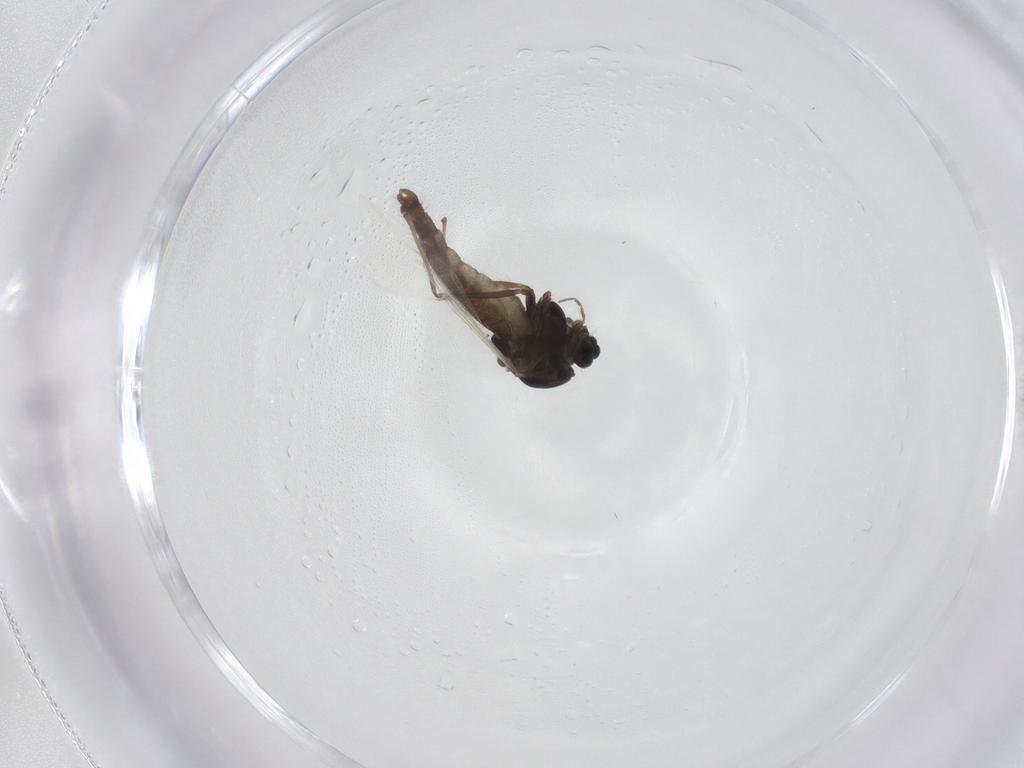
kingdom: Animalia
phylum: Arthropoda
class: Insecta
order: Diptera
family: Chironomidae
